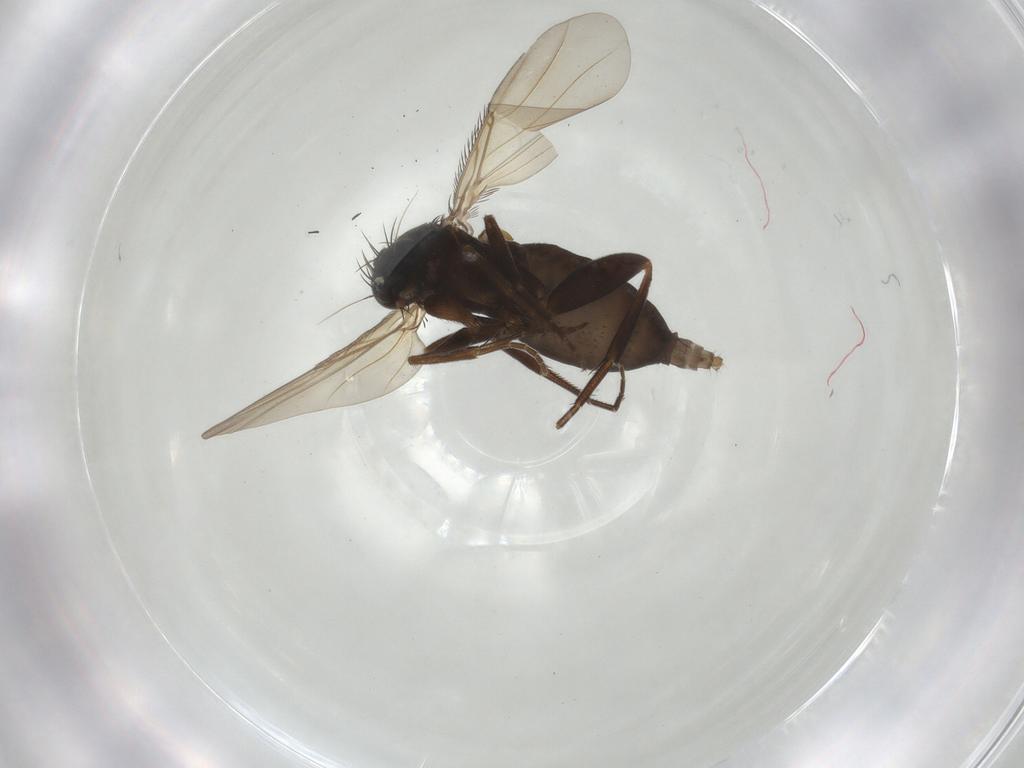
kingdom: Animalia
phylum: Arthropoda
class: Insecta
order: Diptera
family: Phoridae
